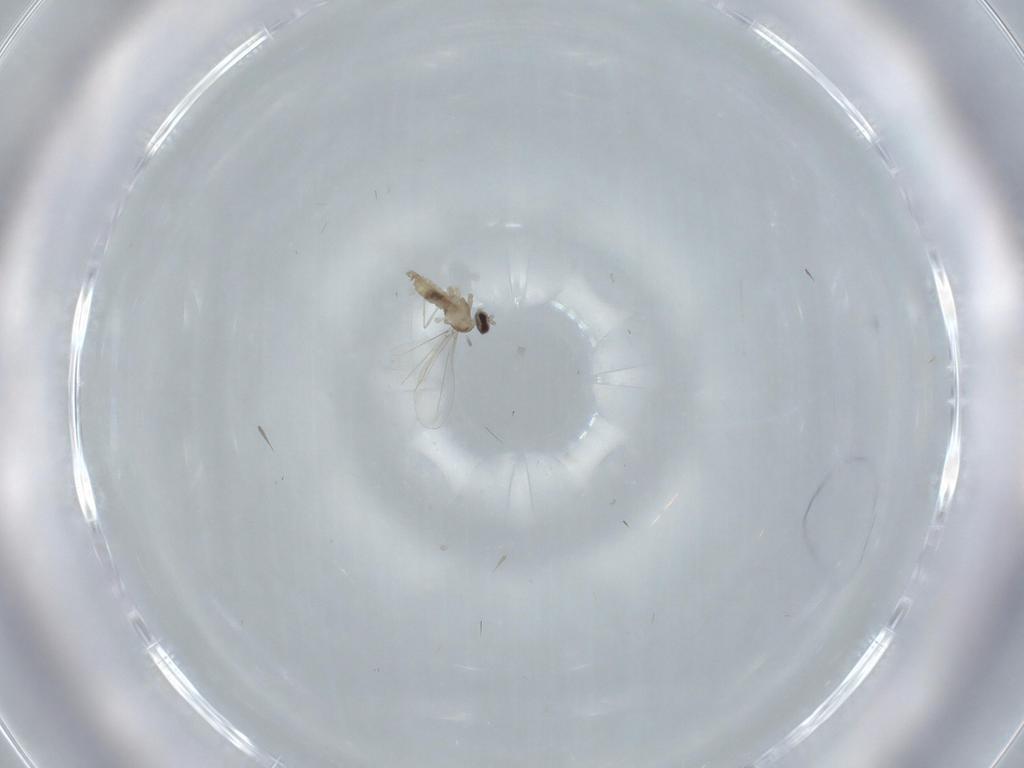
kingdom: Animalia
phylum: Arthropoda
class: Insecta
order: Diptera
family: Cecidomyiidae
